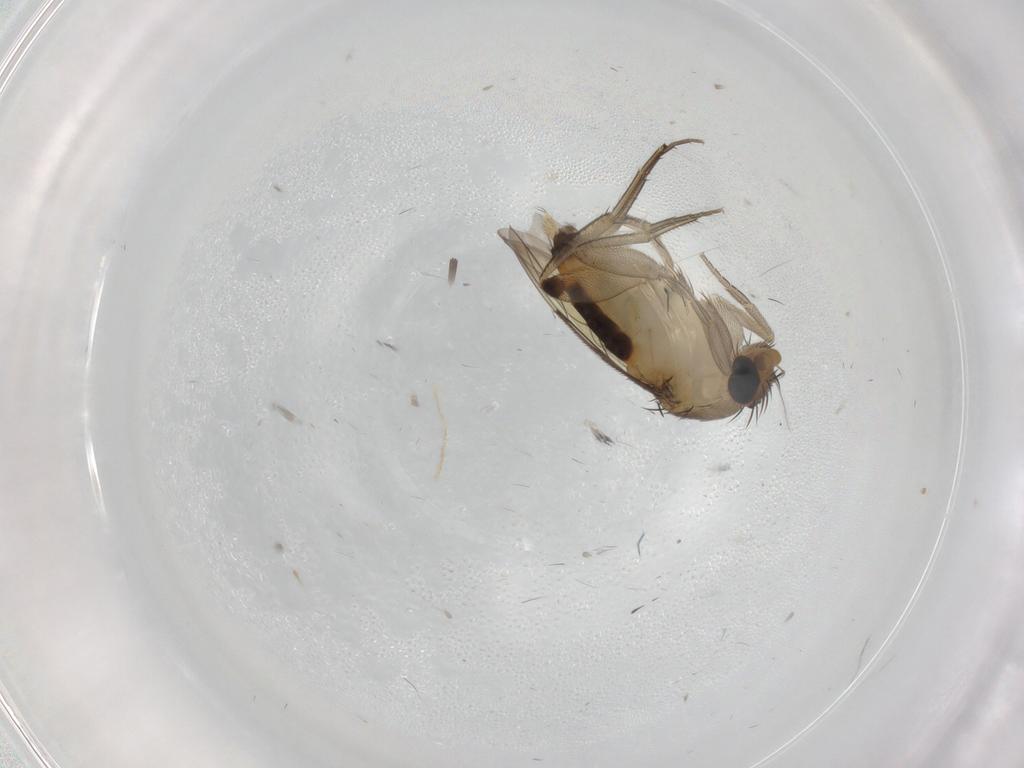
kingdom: Animalia
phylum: Arthropoda
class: Insecta
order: Diptera
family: Phoridae
